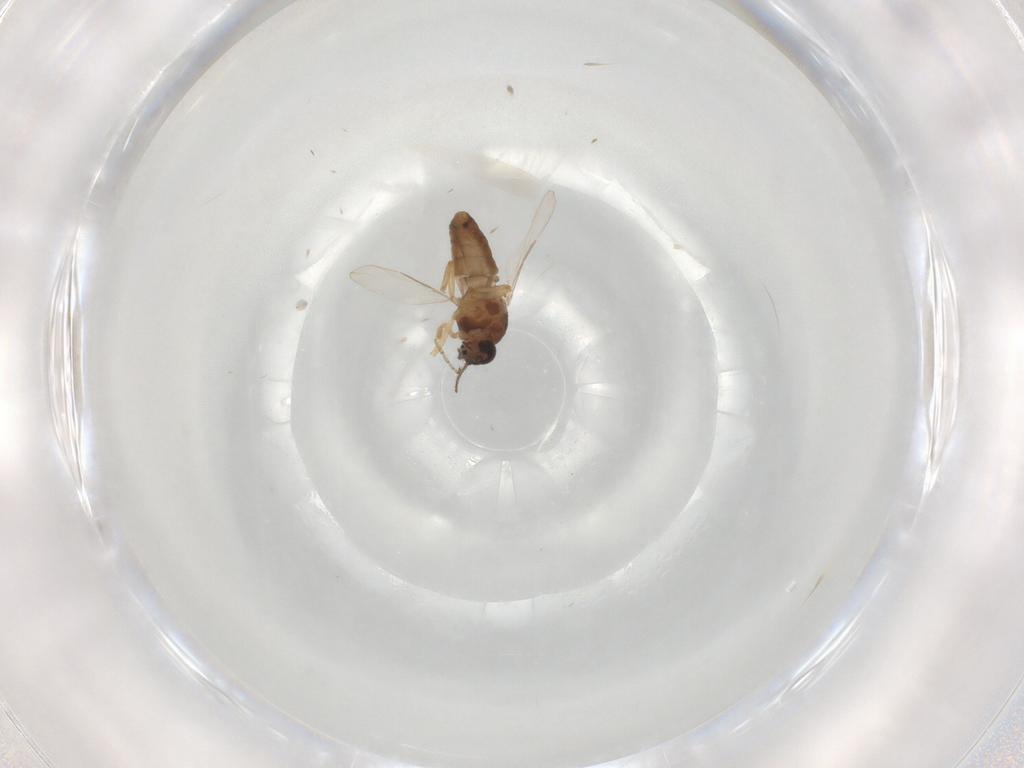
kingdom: Animalia
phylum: Arthropoda
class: Insecta
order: Diptera
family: Ceratopogonidae
